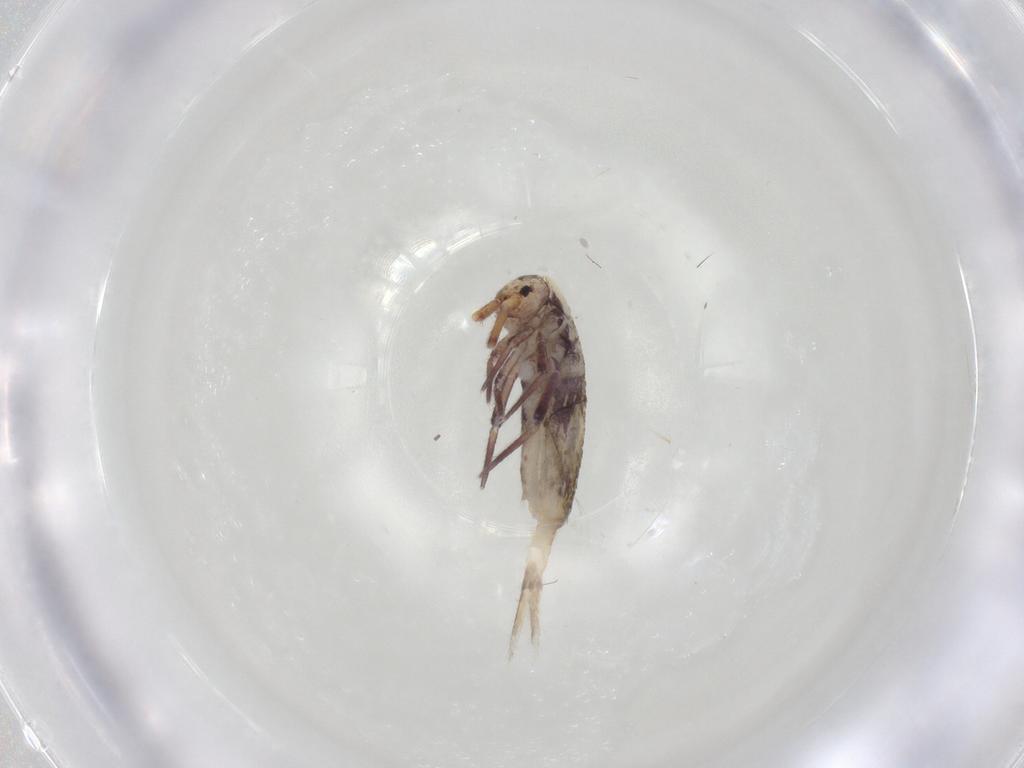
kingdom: Animalia
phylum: Arthropoda
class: Collembola
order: Entomobryomorpha
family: Entomobryidae
